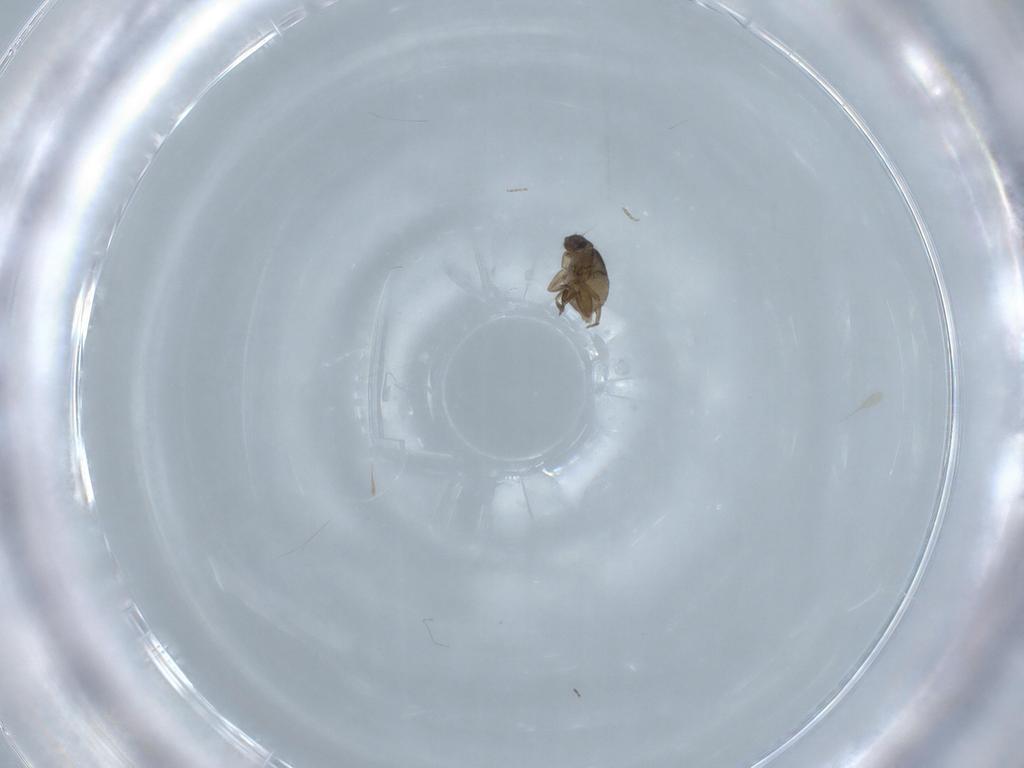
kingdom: Animalia
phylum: Arthropoda
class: Insecta
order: Diptera
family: Phoridae
